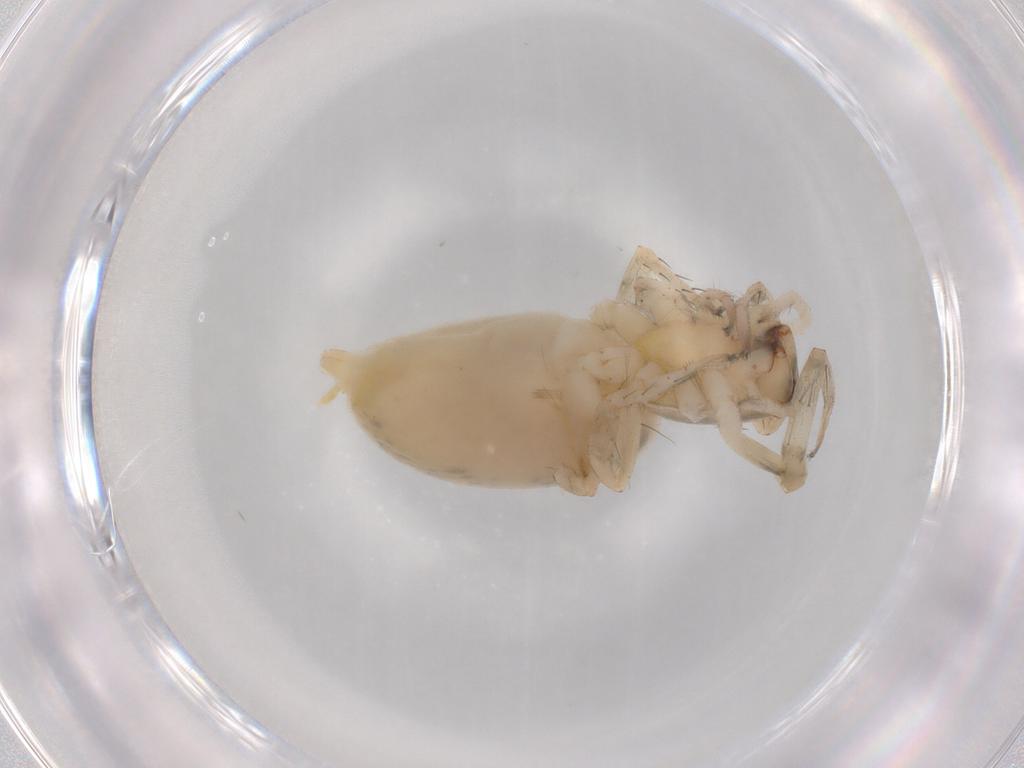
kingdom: Animalia
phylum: Arthropoda
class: Arachnida
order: Araneae
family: Anyphaenidae
